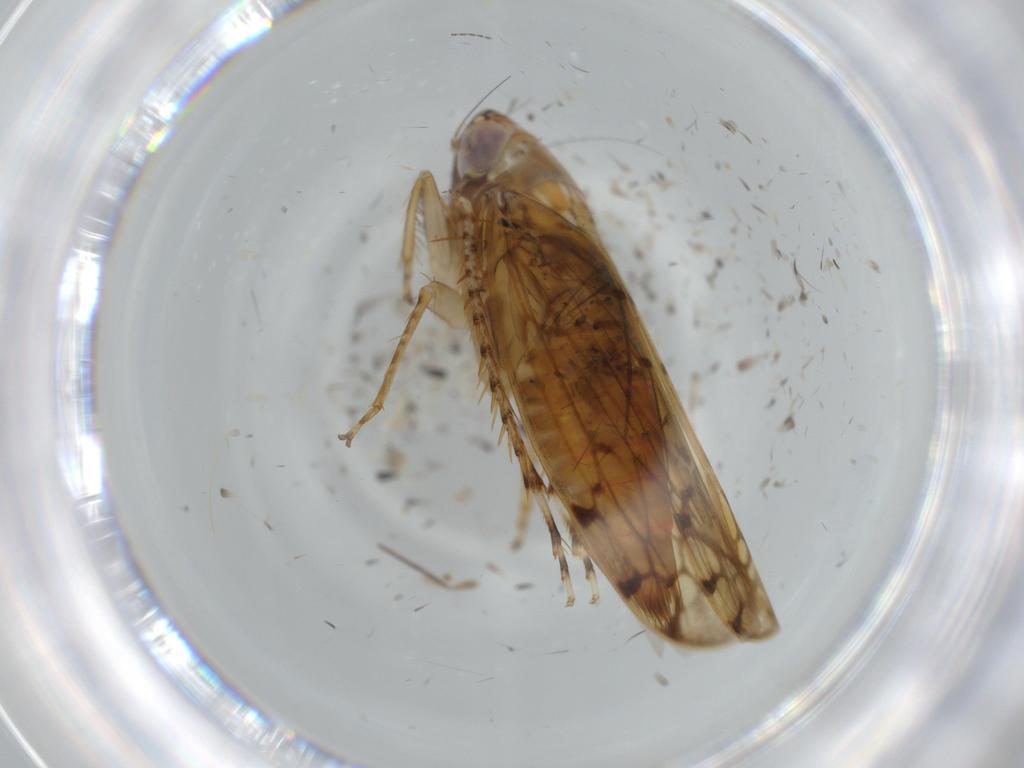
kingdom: Animalia
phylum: Arthropoda
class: Insecta
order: Hemiptera
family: Cicadellidae
